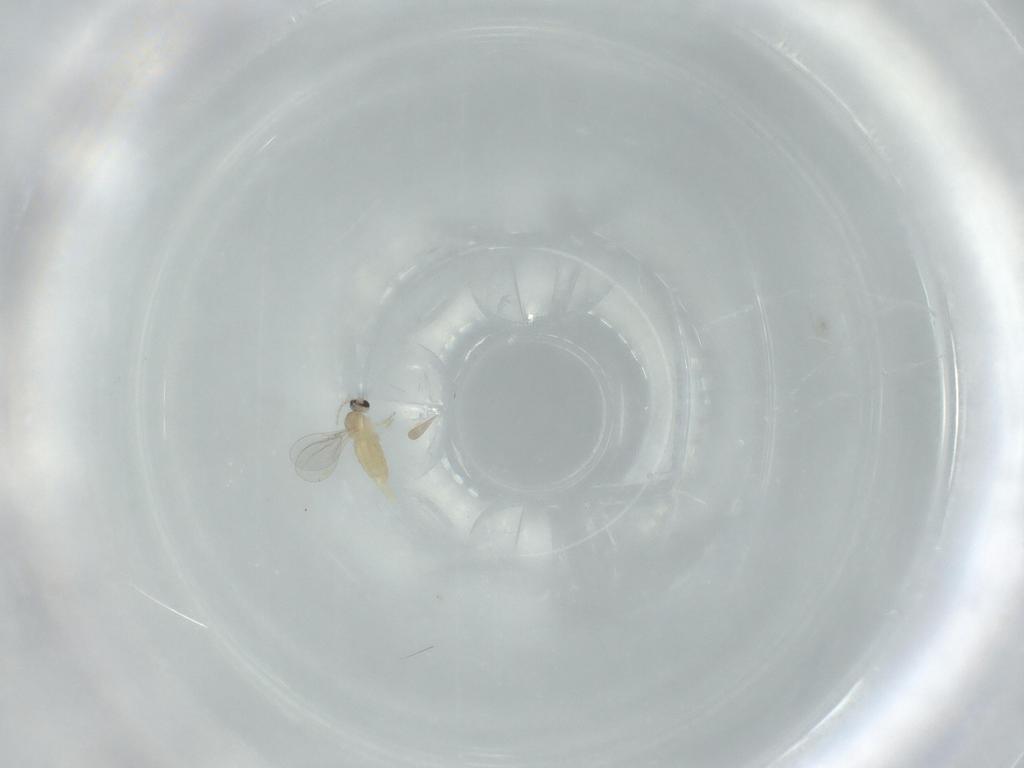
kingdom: Animalia
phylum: Arthropoda
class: Insecta
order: Diptera
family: Cecidomyiidae
